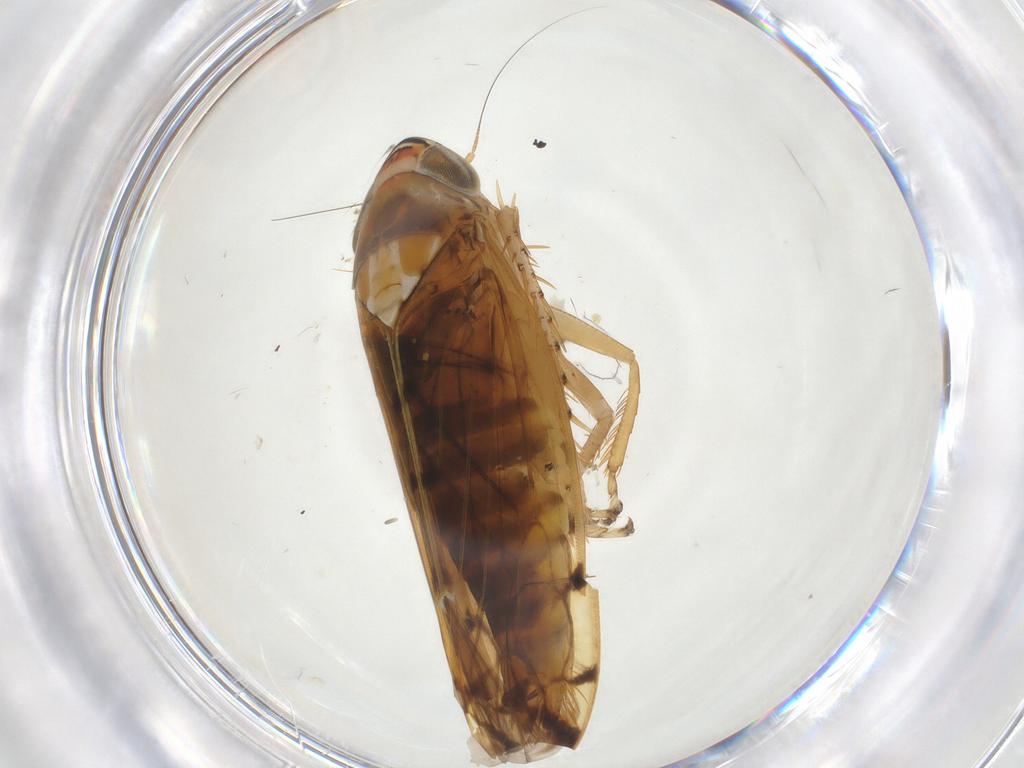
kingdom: Animalia
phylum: Arthropoda
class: Insecta
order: Hemiptera
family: Miridae
